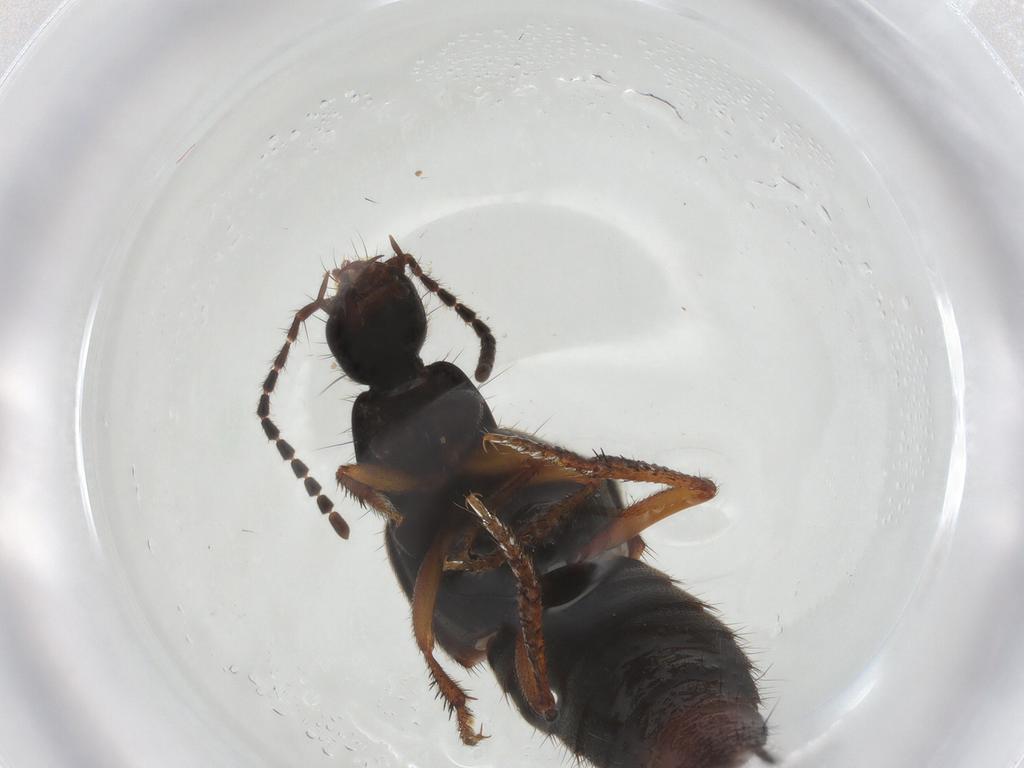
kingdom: Animalia
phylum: Arthropoda
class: Insecta
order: Coleoptera
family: Staphylinidae
